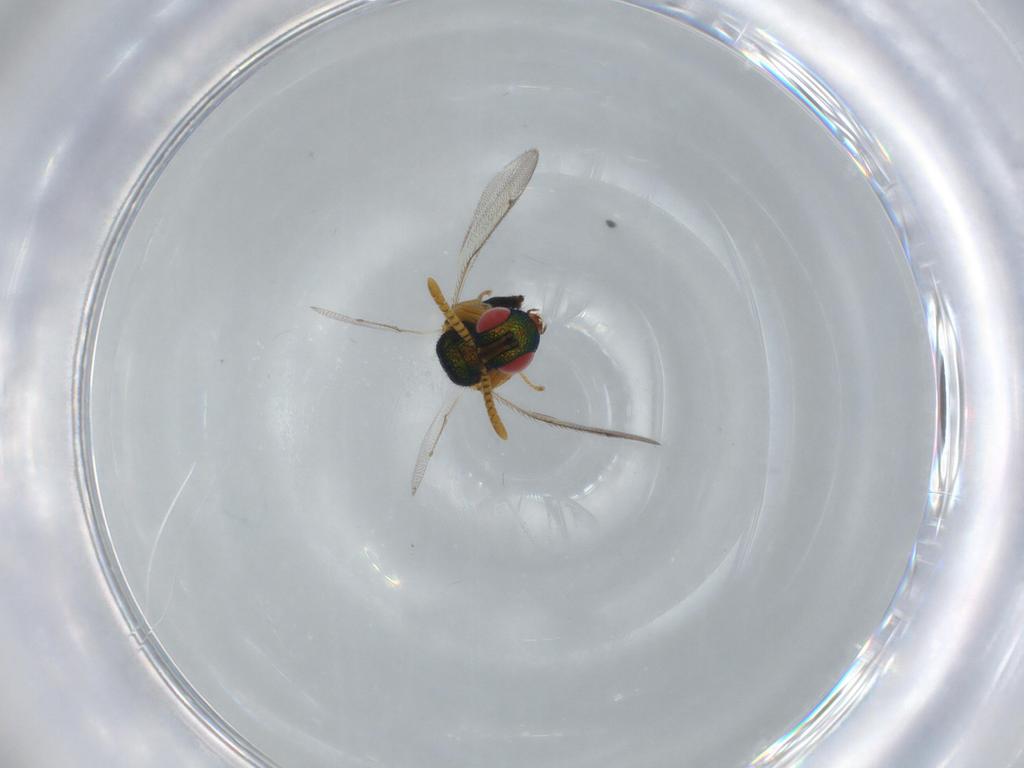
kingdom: Animalia
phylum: Arthropoda
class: Insecta
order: Hymenoptera
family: Torymidae
